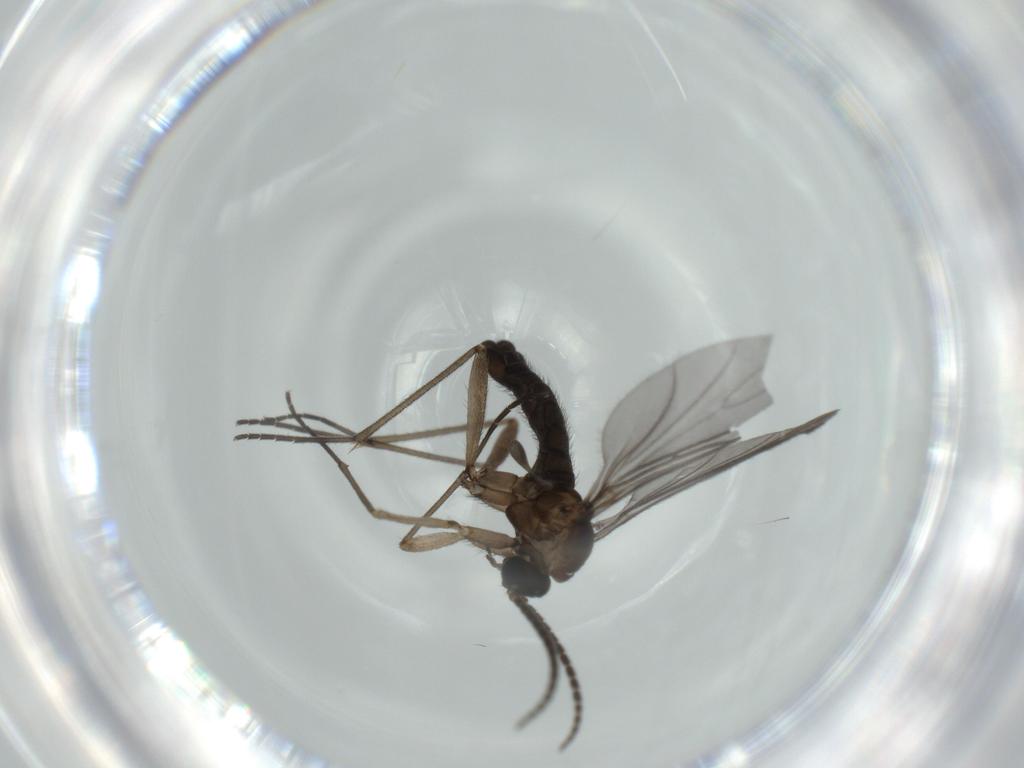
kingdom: Animalia
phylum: Arthropoda
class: Insecta
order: Diptera
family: Sciaridae
